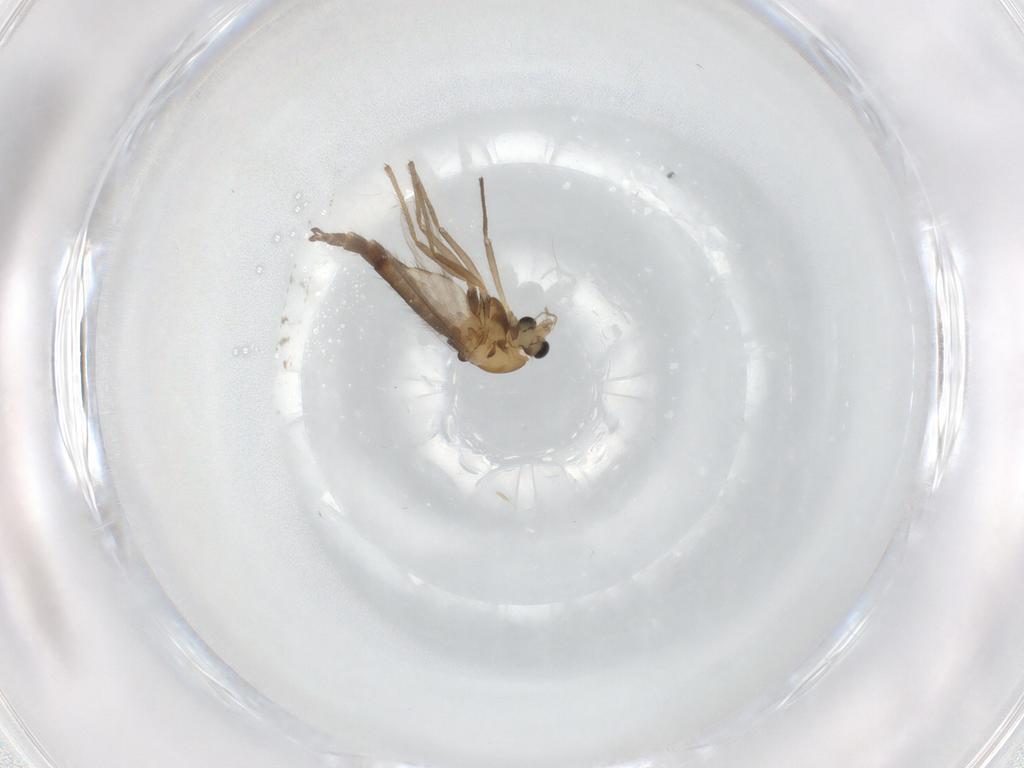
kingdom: Animalia
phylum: Arthropoda
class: Insecta
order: Diptera
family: Chironomidae
